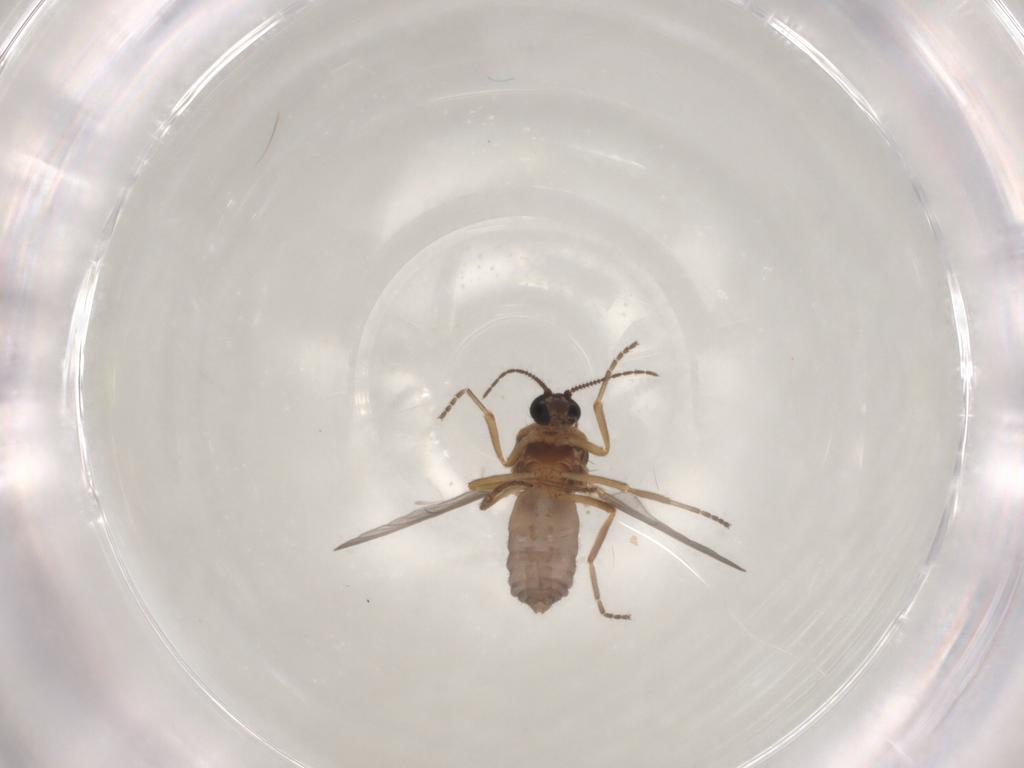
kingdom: Animalia
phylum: Arthropoda
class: Insecta
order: Diptera
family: Ceratopogonidae
